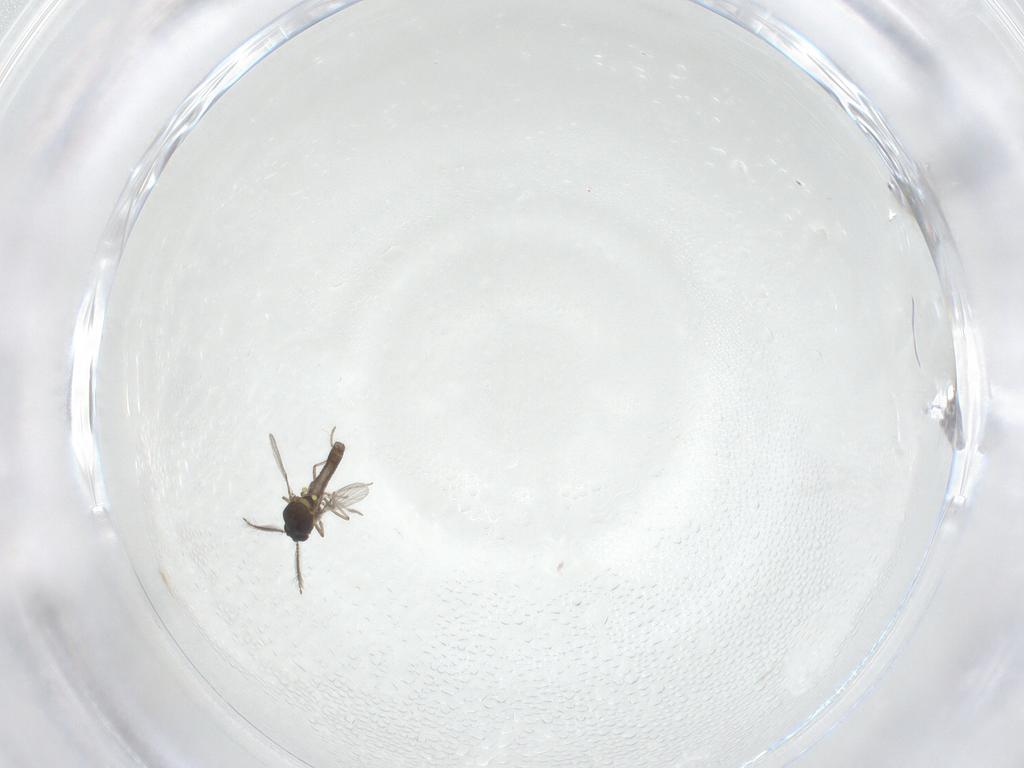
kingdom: Animalia
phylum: Arthropoda
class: Insecta
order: Diptera
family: Ceratopogonidae
